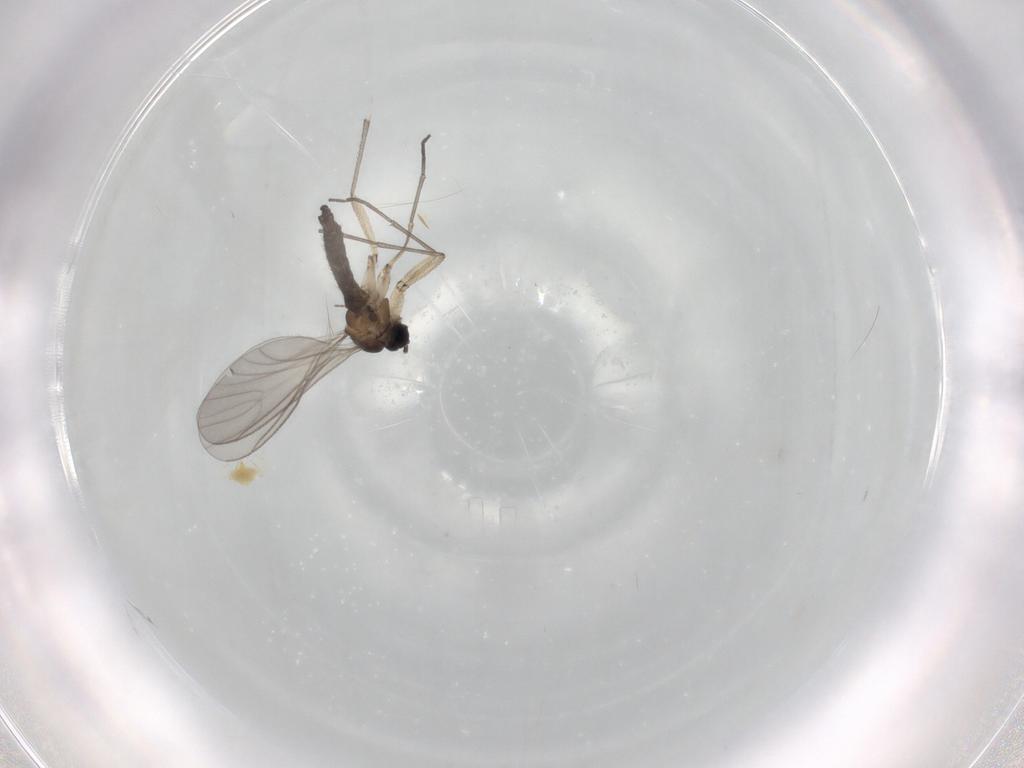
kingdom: Animalia
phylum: Arthropoda
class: Insecta
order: Diptera
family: Sciaridae
